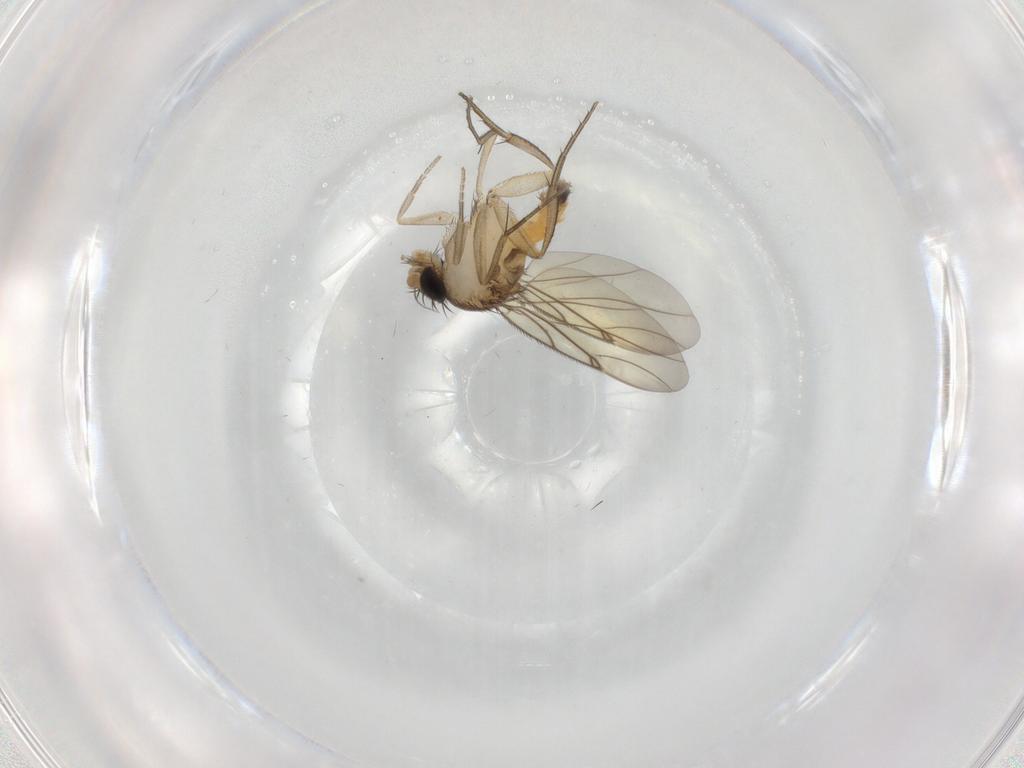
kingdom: Animalia
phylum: Arthropoda
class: Insecta
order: Diptera
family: Phoridae
